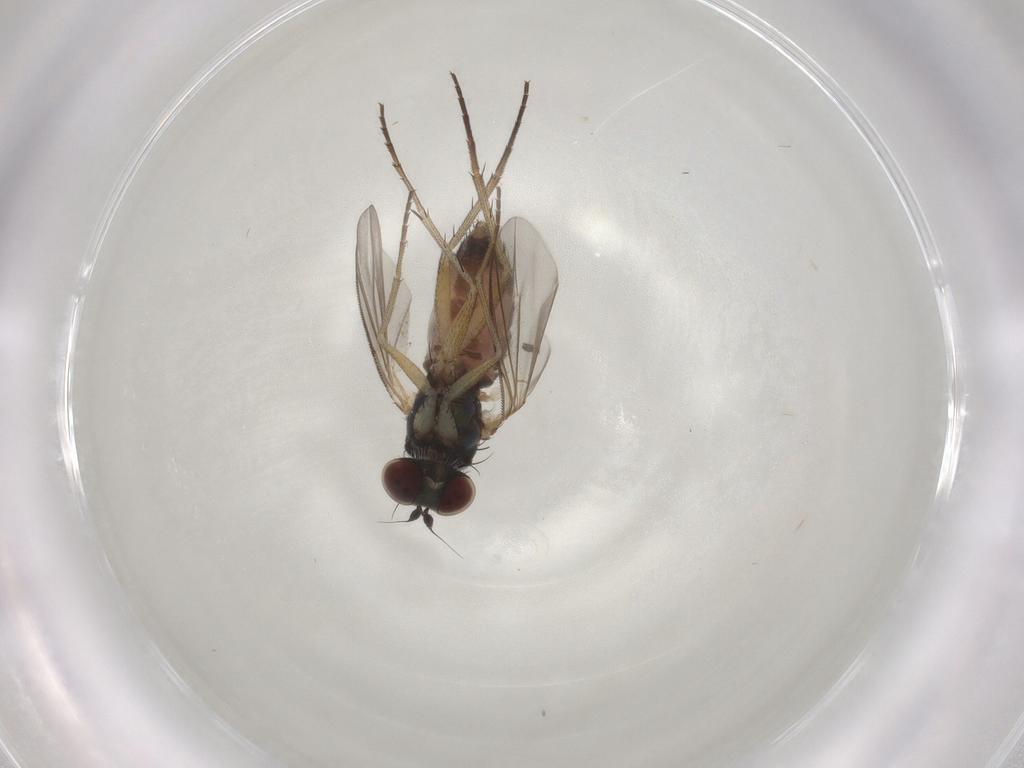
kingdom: Animalia
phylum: Arthropoda
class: Insecta
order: Diptera
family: Dolichopodidae
